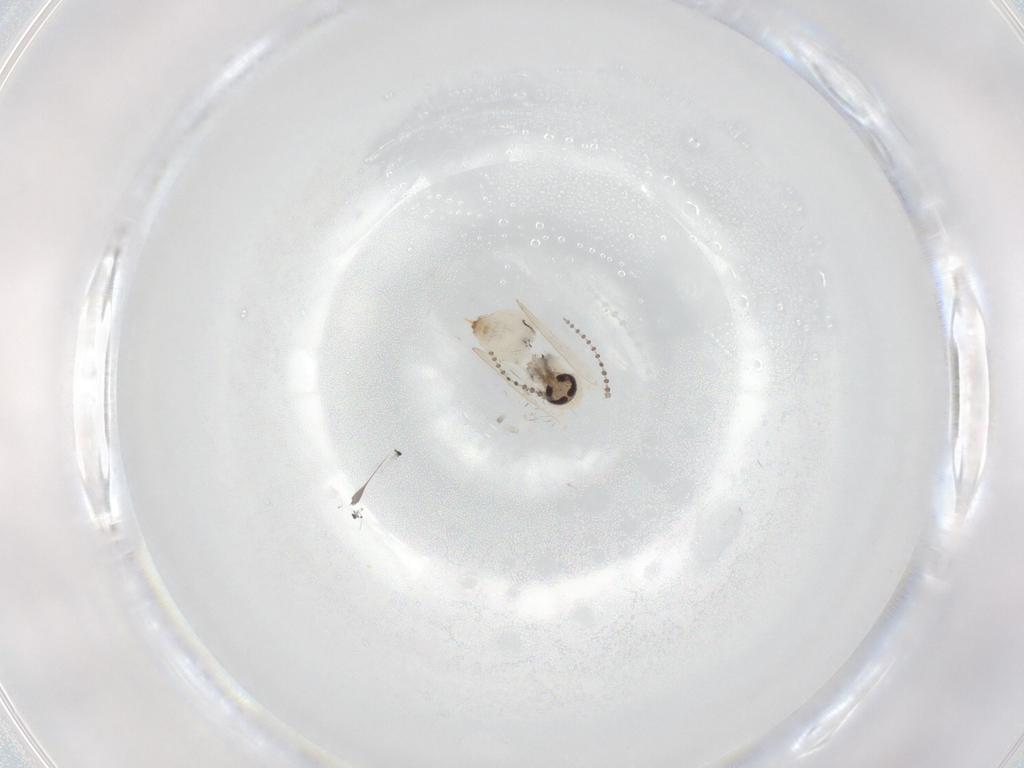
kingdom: Animalia
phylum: Arthropoda
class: Insecta
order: Diptera
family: Psychodidae
